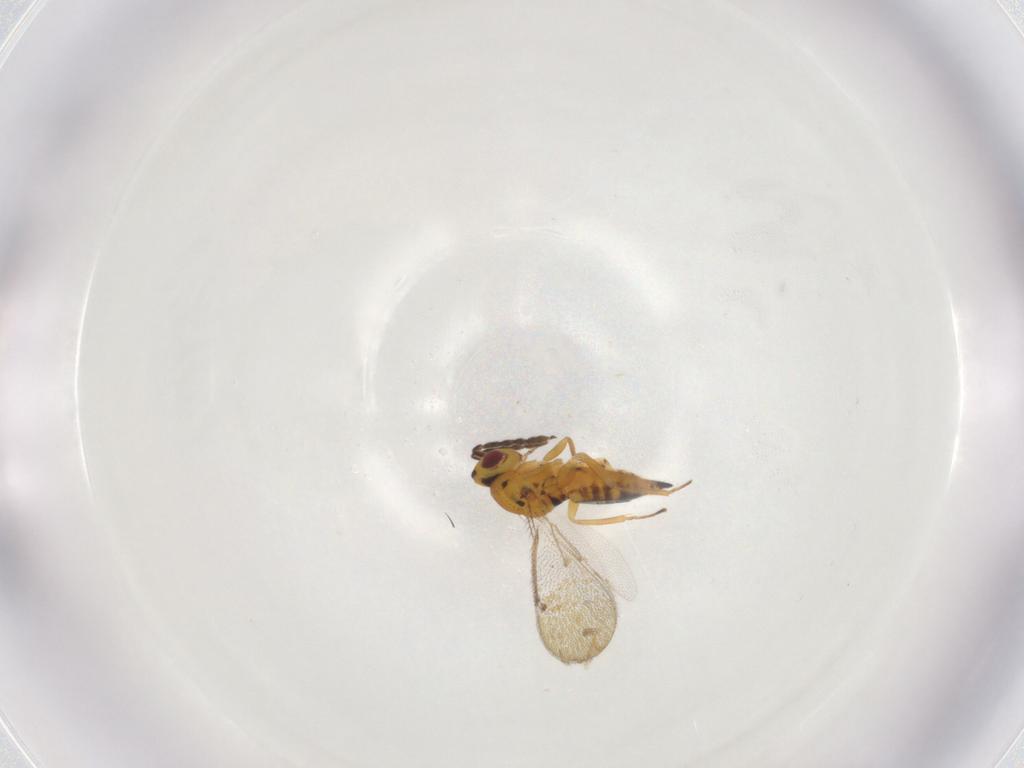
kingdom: Animalia
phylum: Arthropoda
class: Insecta
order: Hymenoptera
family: Eulophidae
